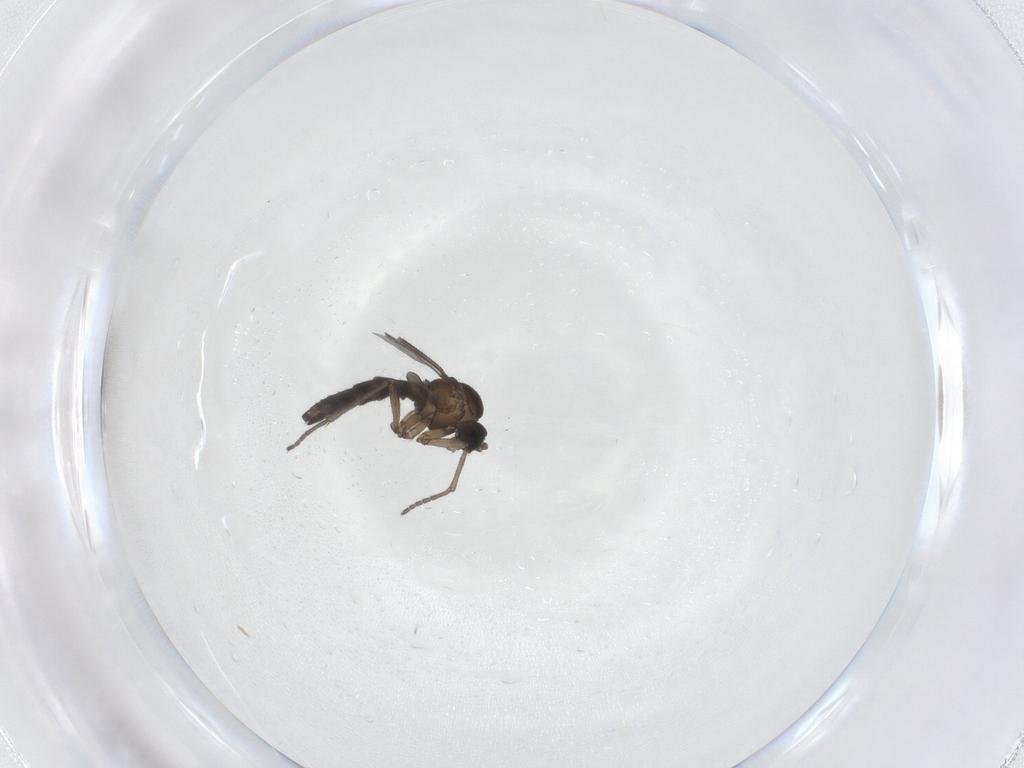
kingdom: Animalia
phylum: Arthropoda
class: Insecta
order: Diptera
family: Sciaridae
